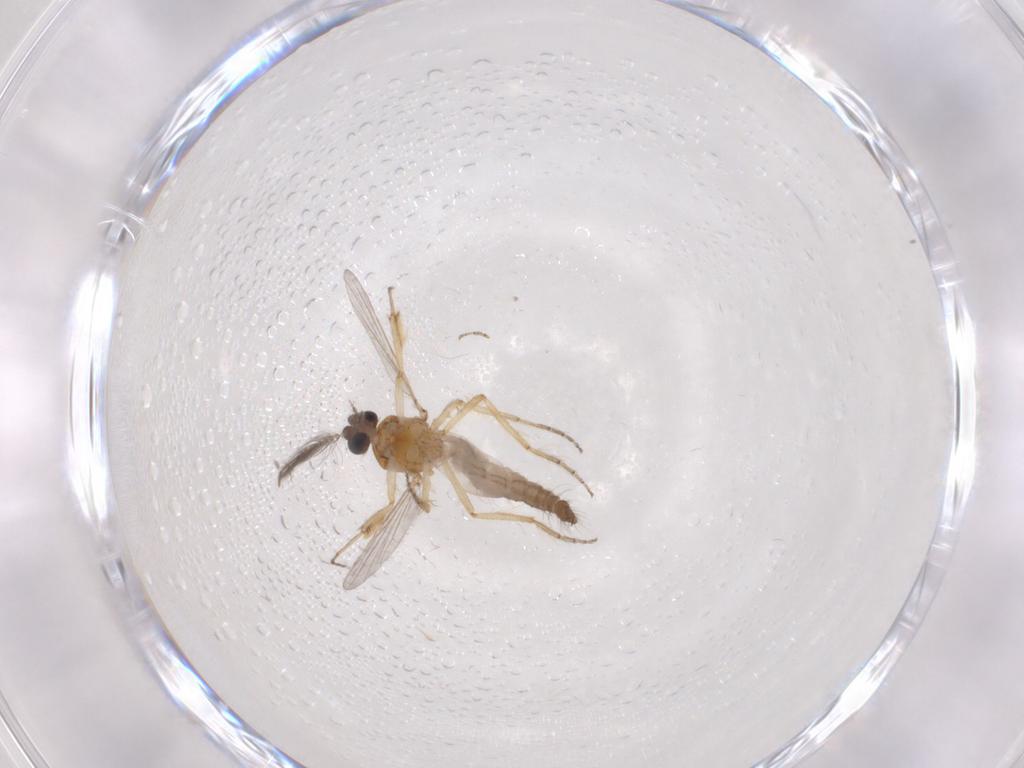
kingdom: Animalia
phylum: Arthropoda
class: Insecta
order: Diptera
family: Ceratopogonidae
